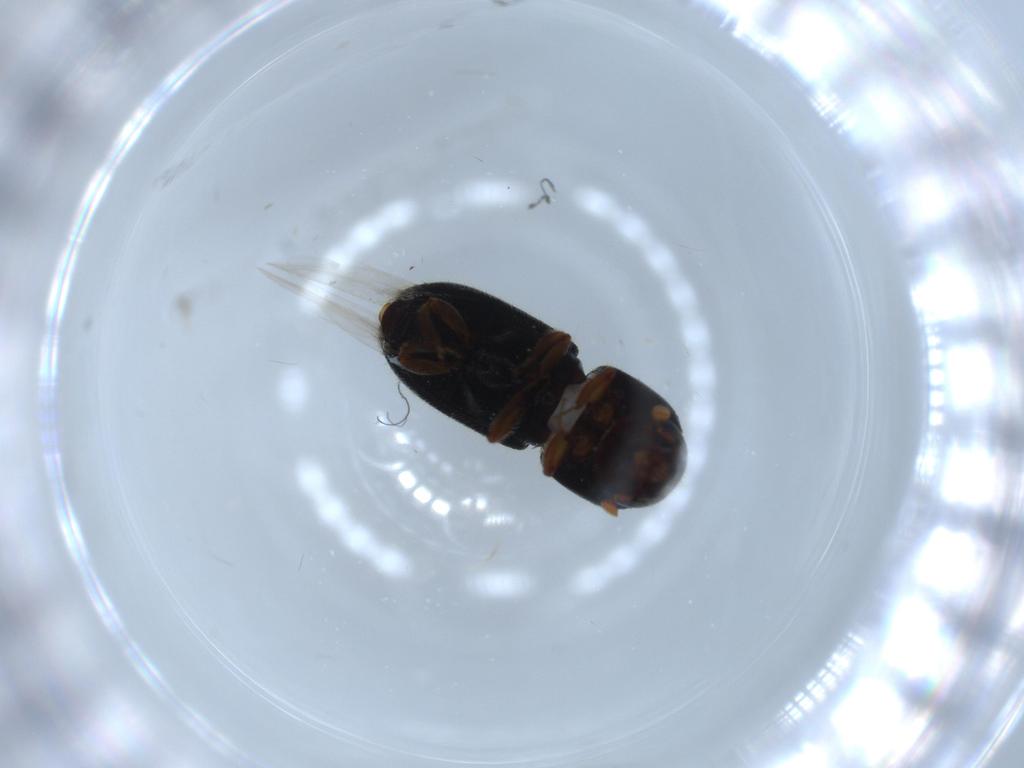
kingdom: Animalia
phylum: Arthropoda
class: Insecta
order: Coleoptera
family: Curculionidae
